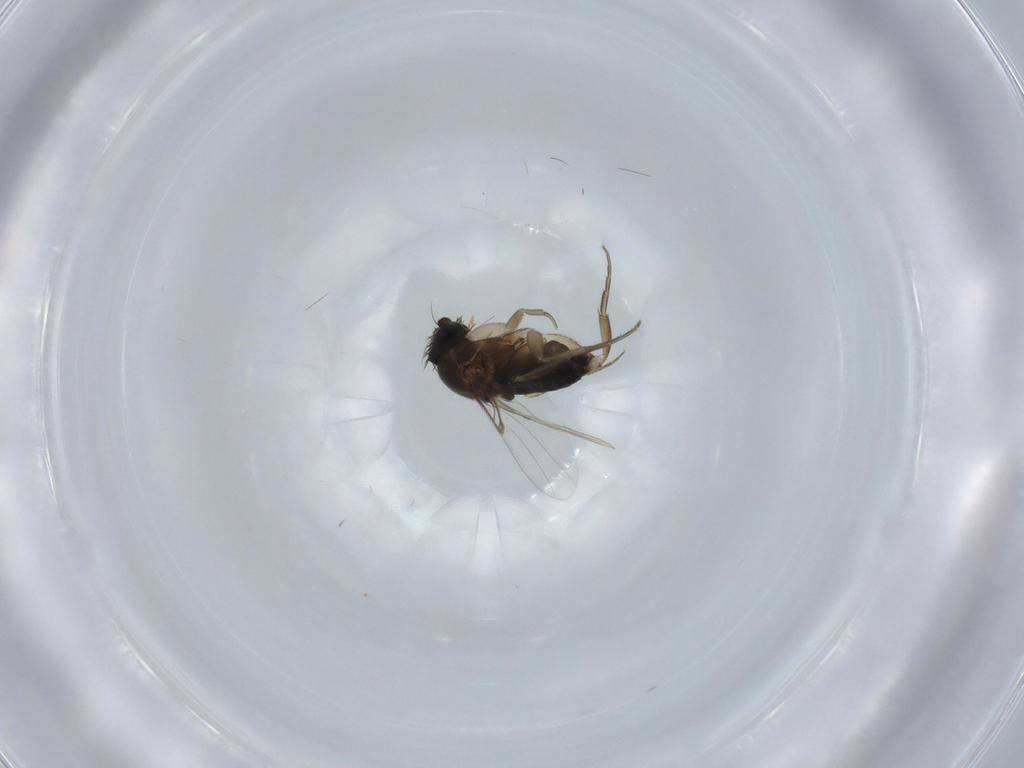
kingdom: Animalia
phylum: Arthropoda
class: Insecta
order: Diptera
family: Phoridae
